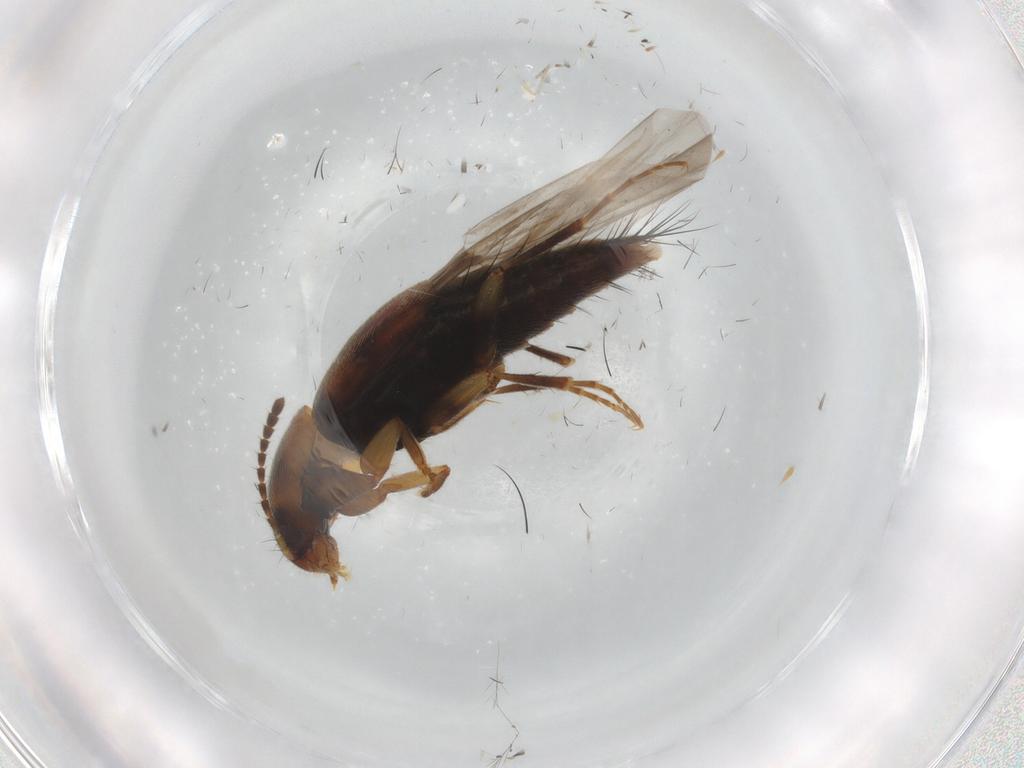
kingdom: Animalia
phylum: Arthropoda
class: Insecta
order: Coleoptera
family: Staphylinidae
